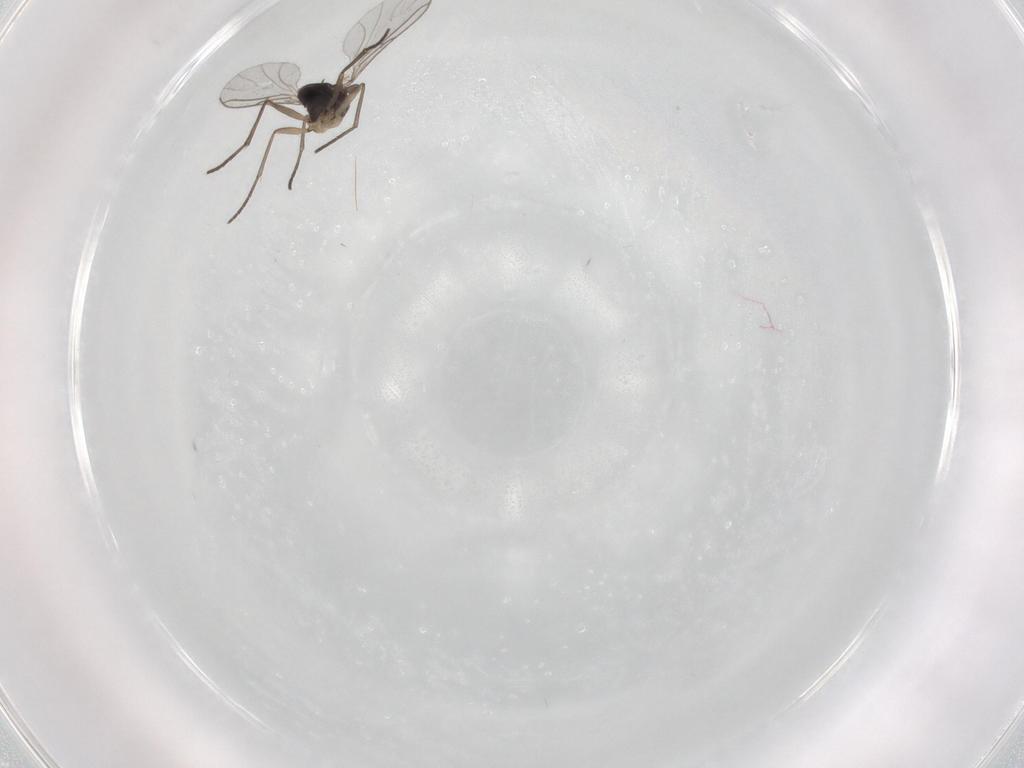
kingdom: Animalia
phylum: Arthropoda
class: Insecta
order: Diptera
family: Sciaridae
